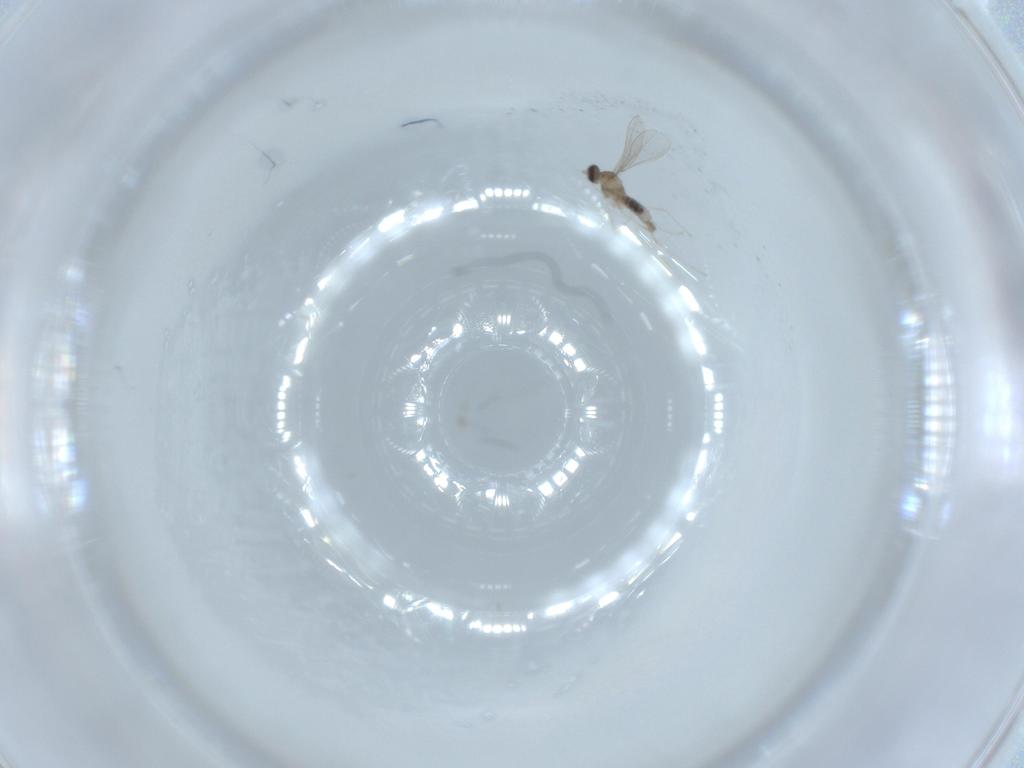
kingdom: Animalia
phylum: Arthropoda
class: Insecta
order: Diptera
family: Cecidomyiidae
